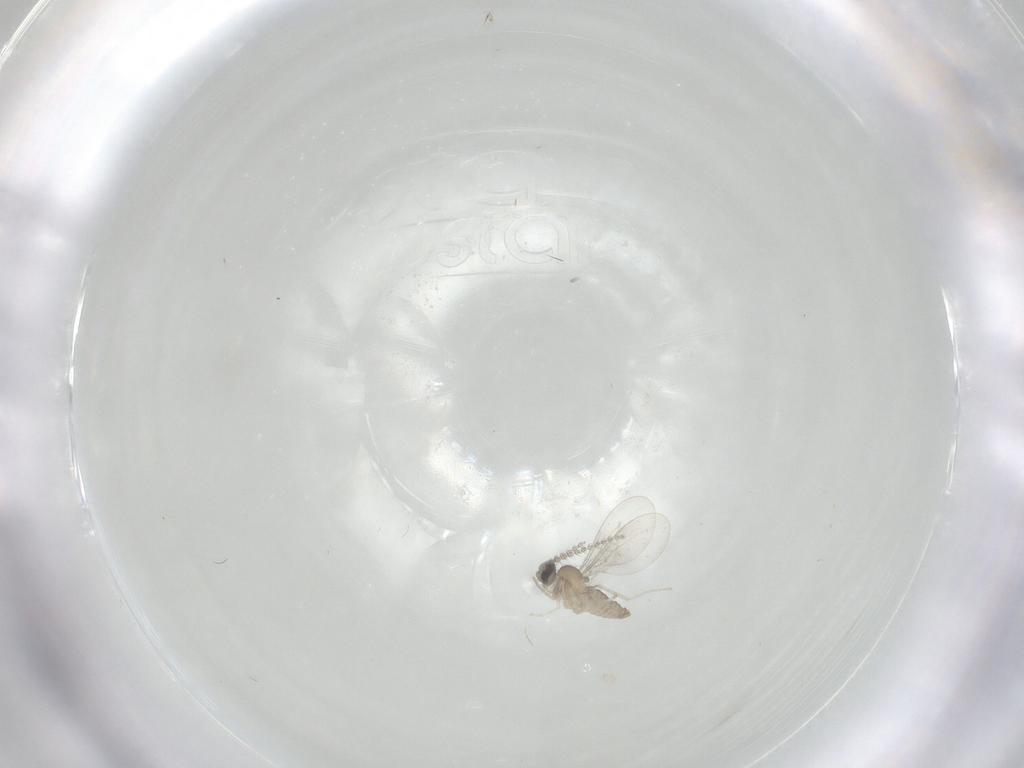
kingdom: Animalia
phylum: Arthropoda
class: Insecta
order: Diptera
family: Cecidomyiidae
